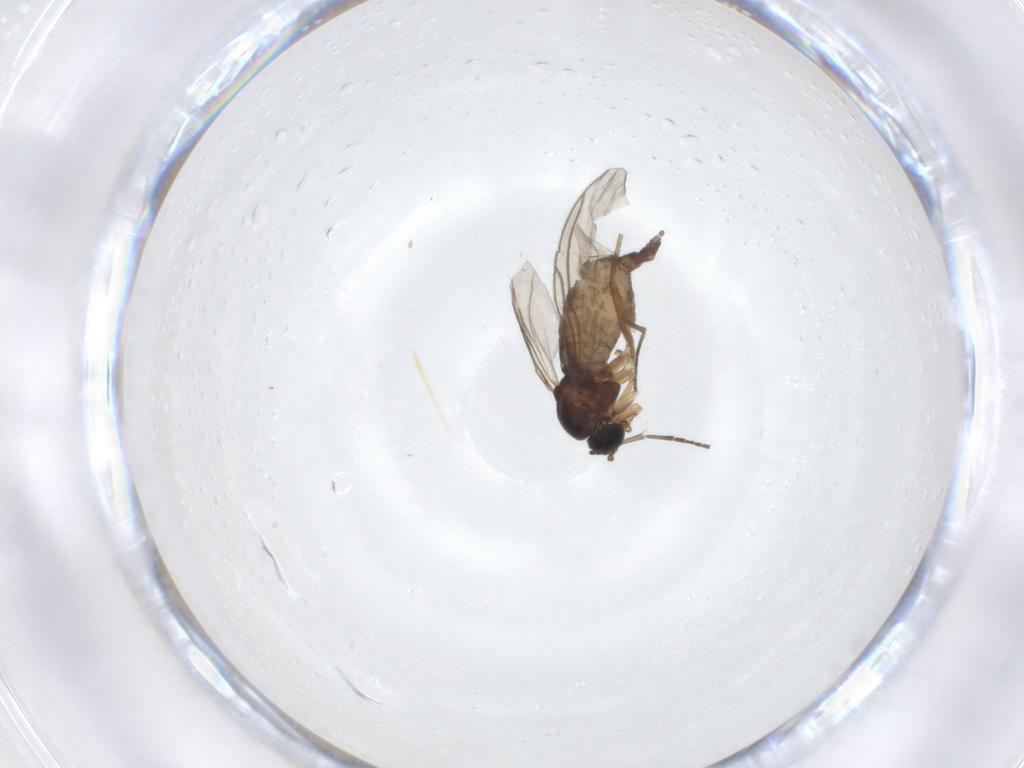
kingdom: Animalia
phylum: Arthropoda
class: Insecta
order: Diptera
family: Sciaridae
